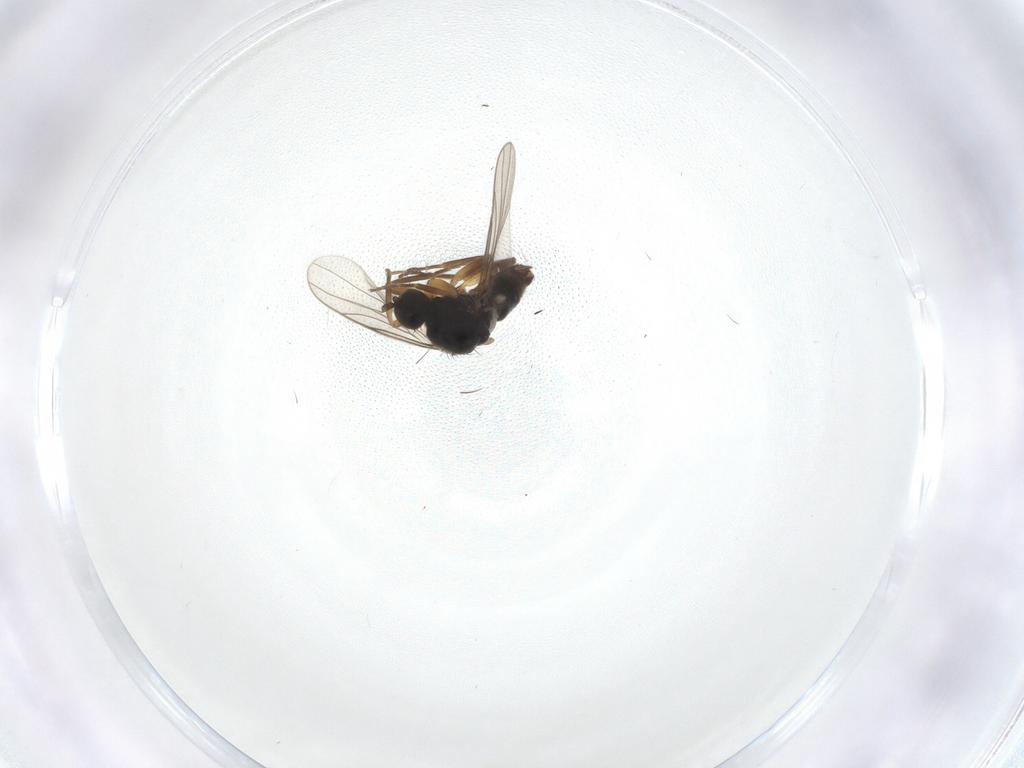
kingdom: Animalia
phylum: Arthropoda
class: Insecta
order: Diptera
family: Hybotidae
